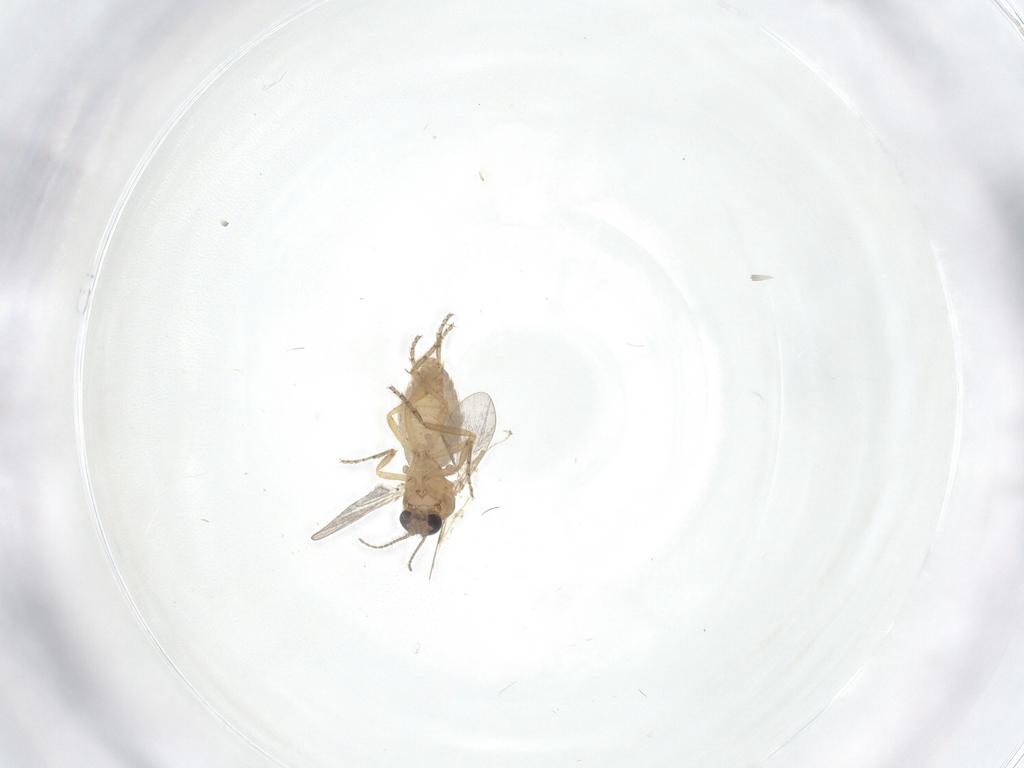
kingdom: Animalia
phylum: Arthropoda
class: Insecta
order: Diptera
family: Ceratopogonidae
